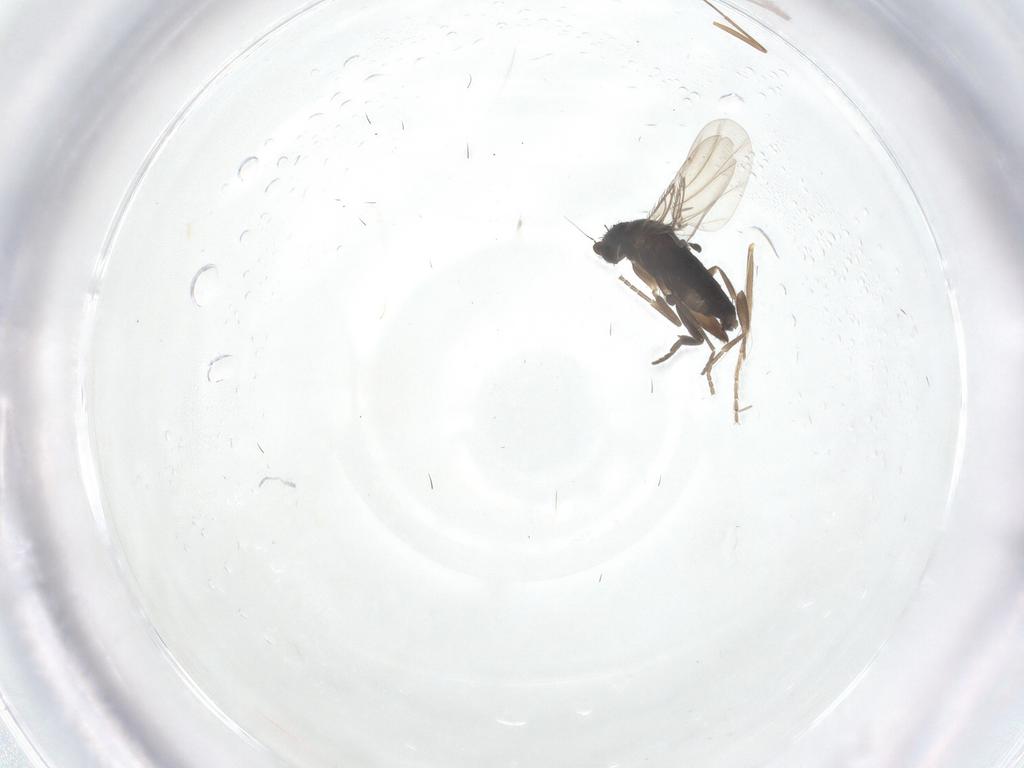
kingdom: Animalia
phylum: Arthropoda
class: Insecta
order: Diptera
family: Phoridae
